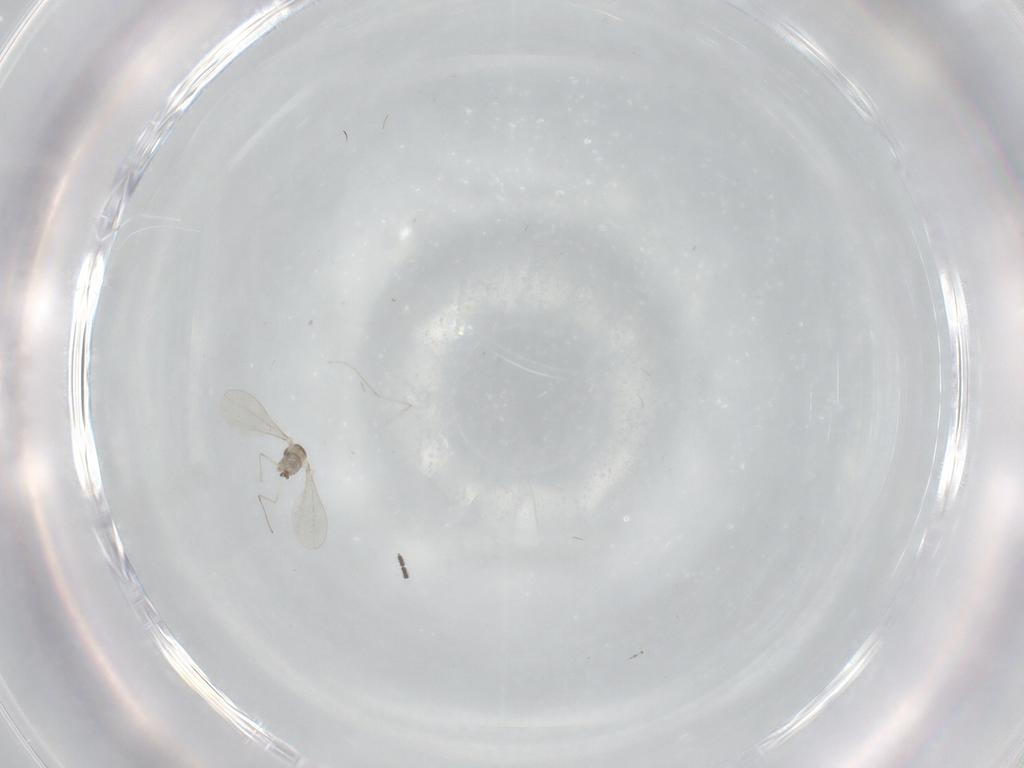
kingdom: Animalia
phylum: Arthropoda
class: Insecta
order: Diptera
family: Cecidomyiidae
